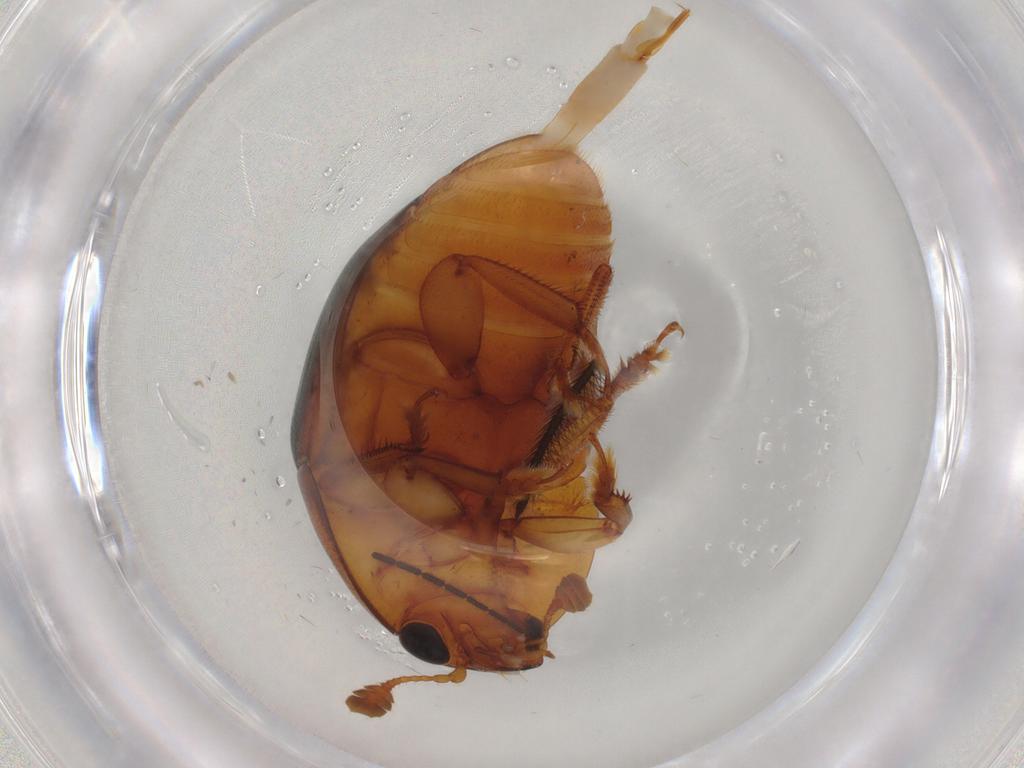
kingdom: Animalia
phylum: Arthropoda
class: Insecta
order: Coleoptera
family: Nitidulidae
